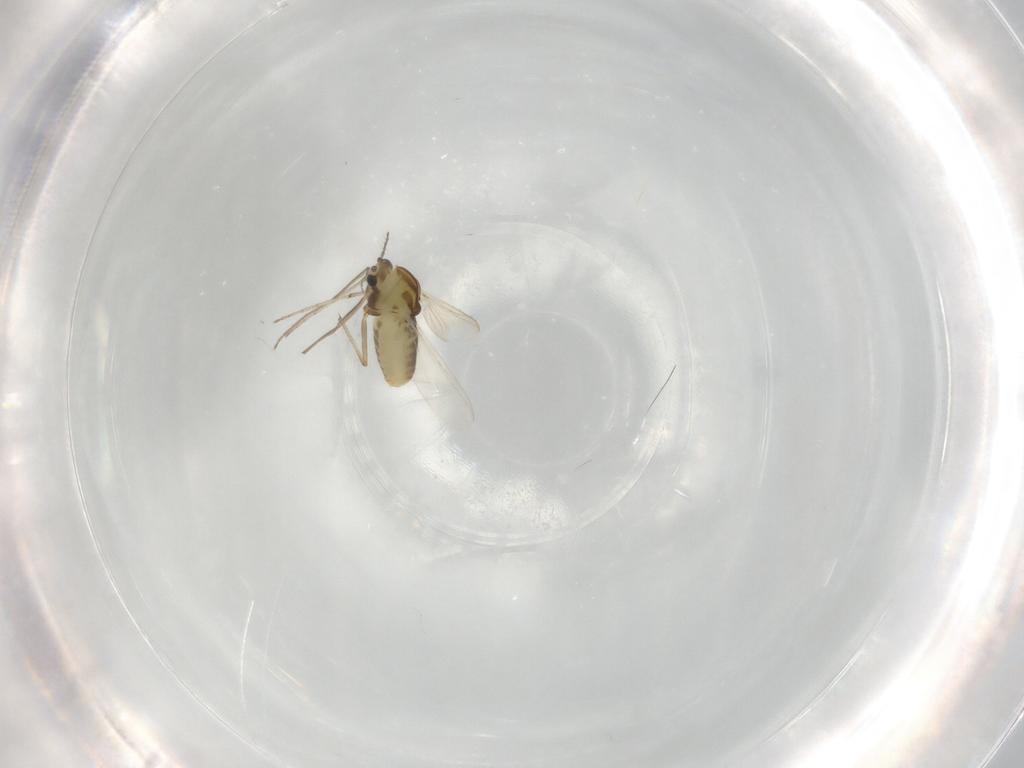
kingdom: Animalia
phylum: Arthropoda
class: Insecta
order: Diptera
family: Chironomidae
